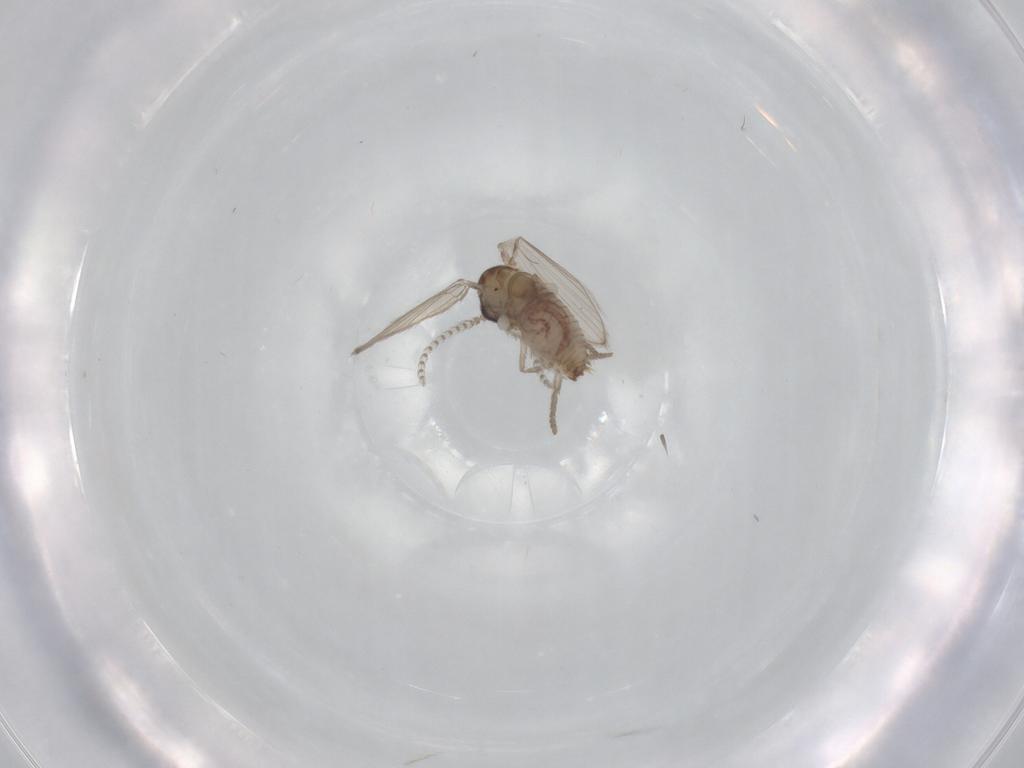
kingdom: Animalia
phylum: Arthropoda
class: Insecta
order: Diptera
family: Psychodidae
